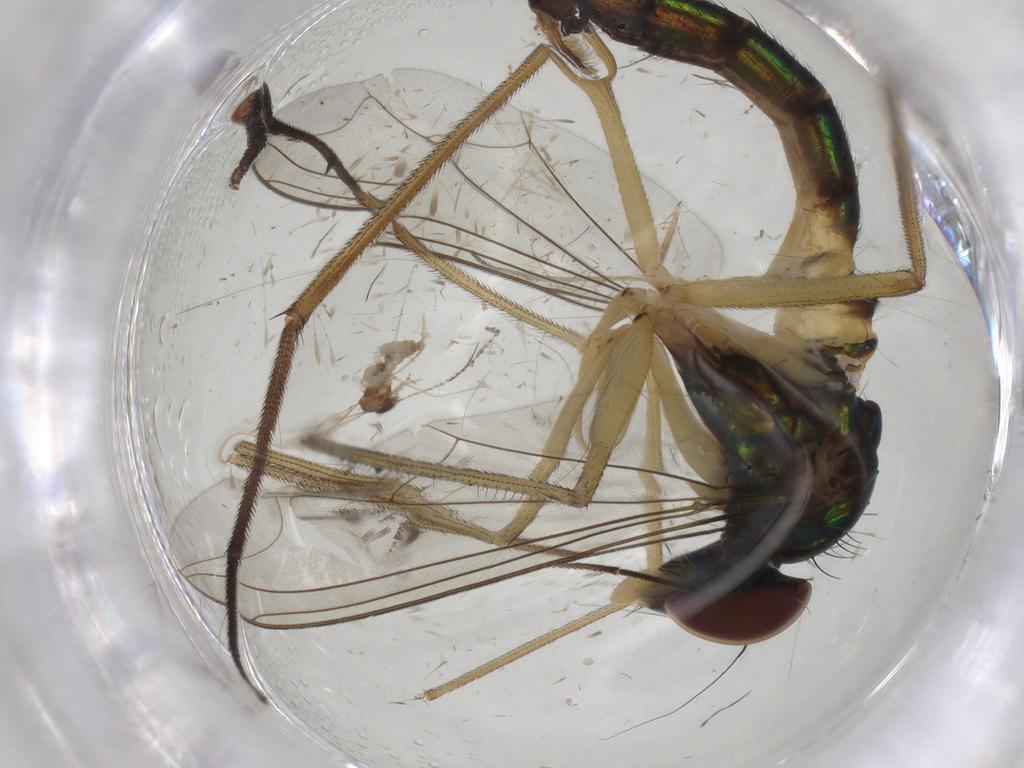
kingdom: Animalia
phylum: Arthropoda
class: Insecta
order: Diptera
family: Dolichopodidae
